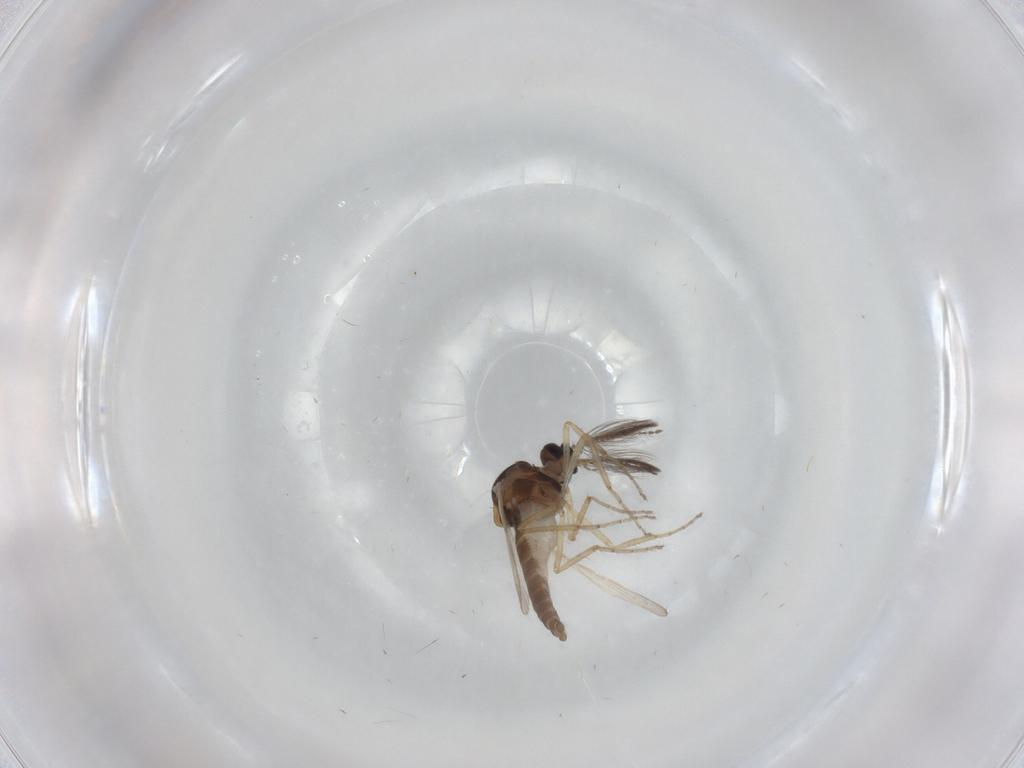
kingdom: Animalia
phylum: Arthropoda
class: Insecta
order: Diptera
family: Ceratopogonidae
